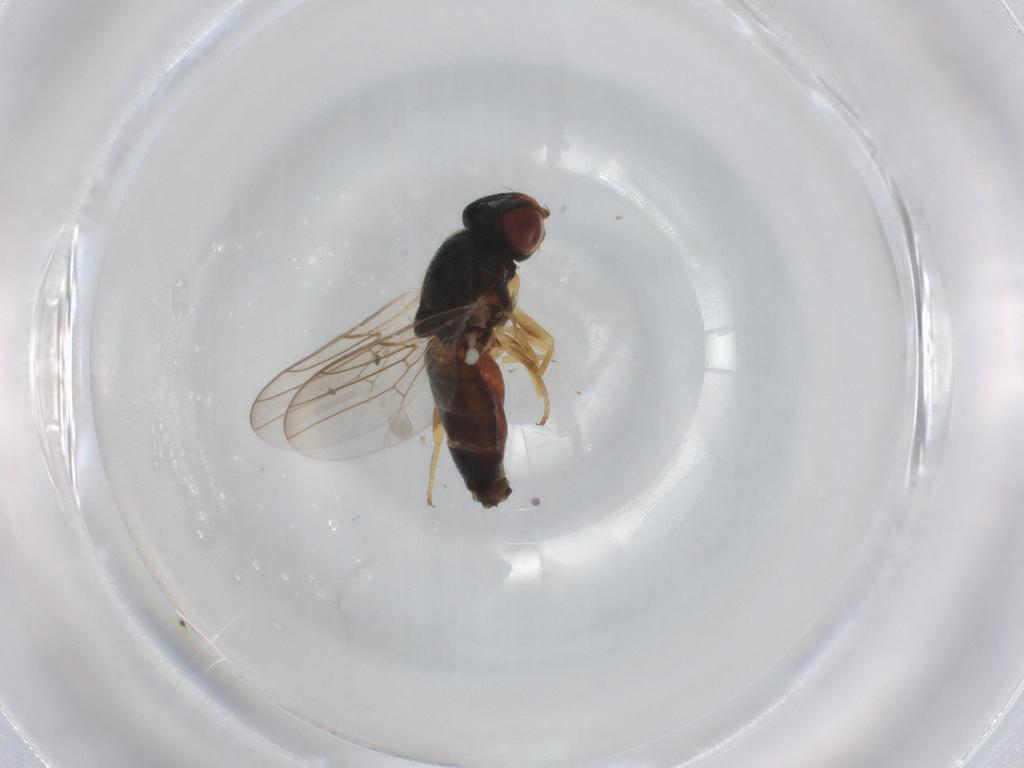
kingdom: Animalia
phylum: Arthropoda
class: Insecta
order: Diptera
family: Chloropidae
